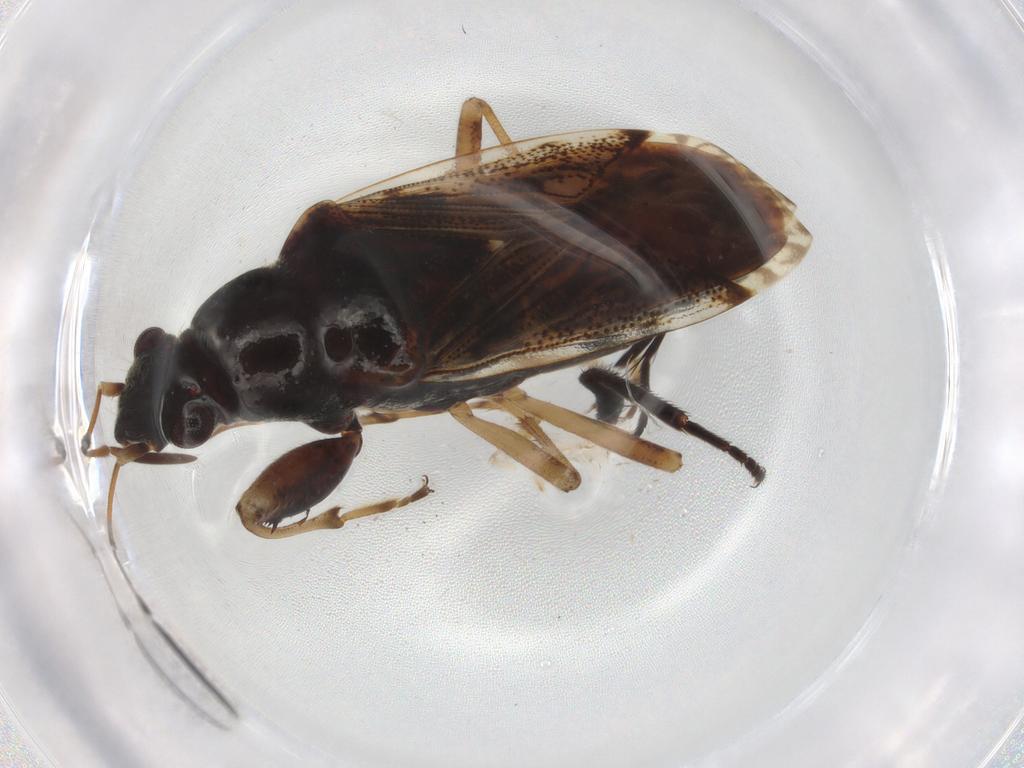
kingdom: Animalia
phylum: Arthropoda
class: Insecta
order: Hemiptera
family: Rhyparochromidae
